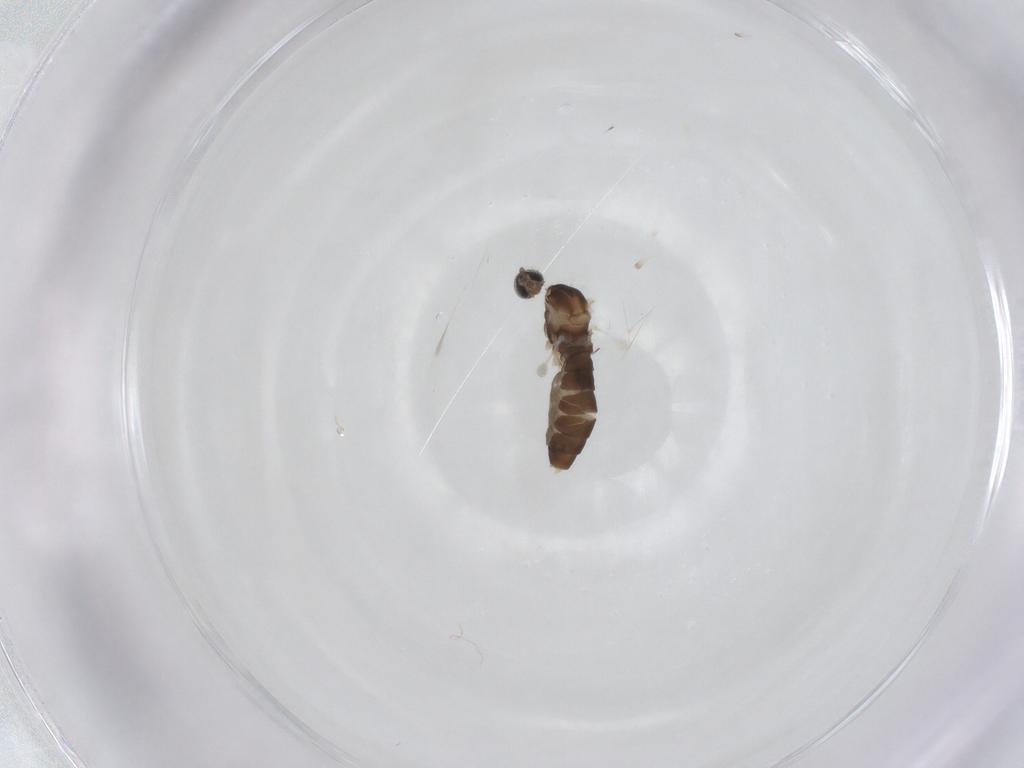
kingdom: Animalia
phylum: Arthropoda
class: Insecta
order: Diptera
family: Cecidomyiidae
